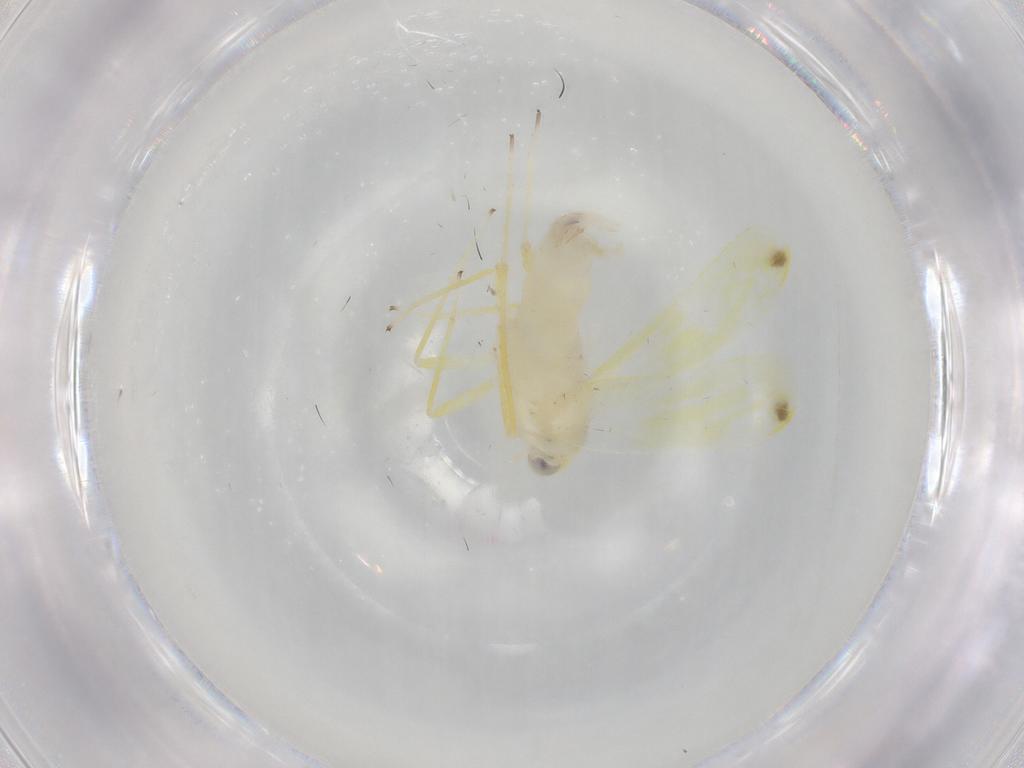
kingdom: Animalia
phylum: Arthropoda
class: Insecta
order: Hemiptera
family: Cicadellidae
